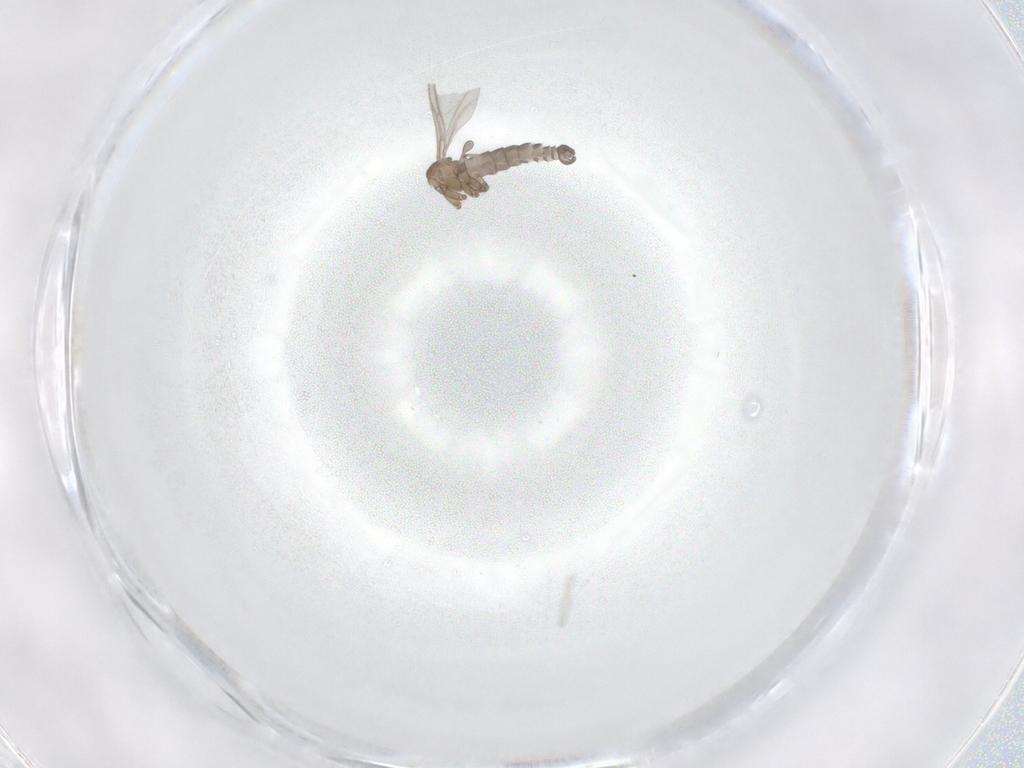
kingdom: Animalia
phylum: Arthropoda
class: Insecta
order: Diptera
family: Sciaridae
